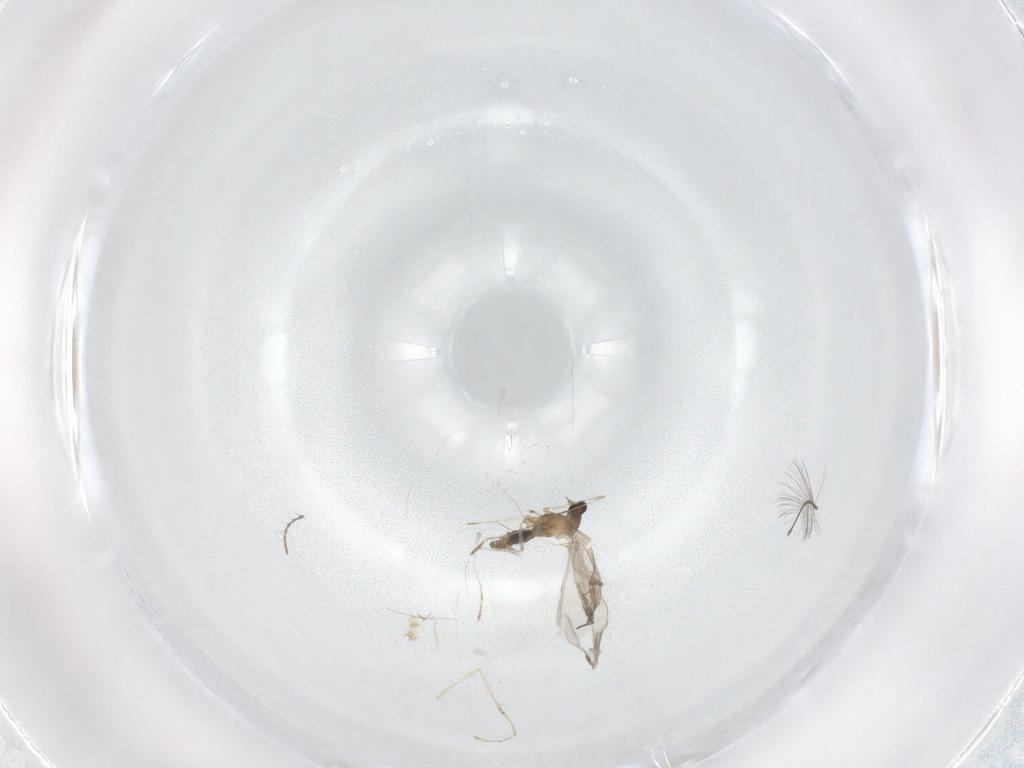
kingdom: Animalia
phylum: Arthropoda
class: Insecta
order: Diptera
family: Cecidomyiidae
